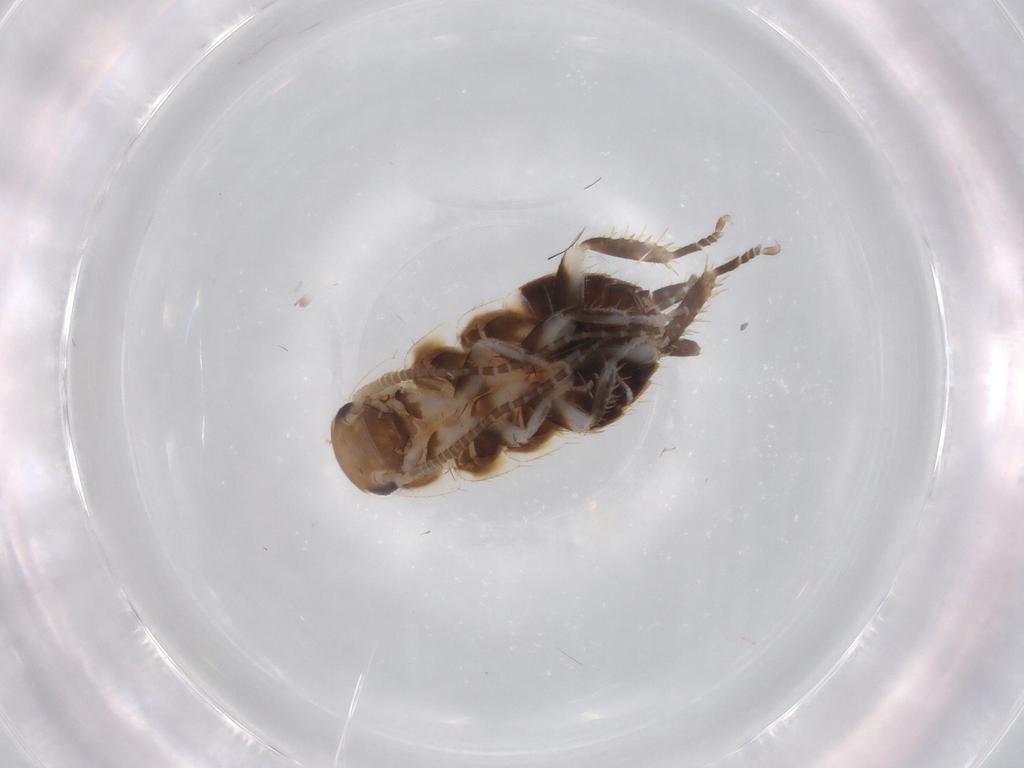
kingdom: Animalia
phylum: Arthropoda
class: Insecta
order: Blattodea
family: Ectobiidae
